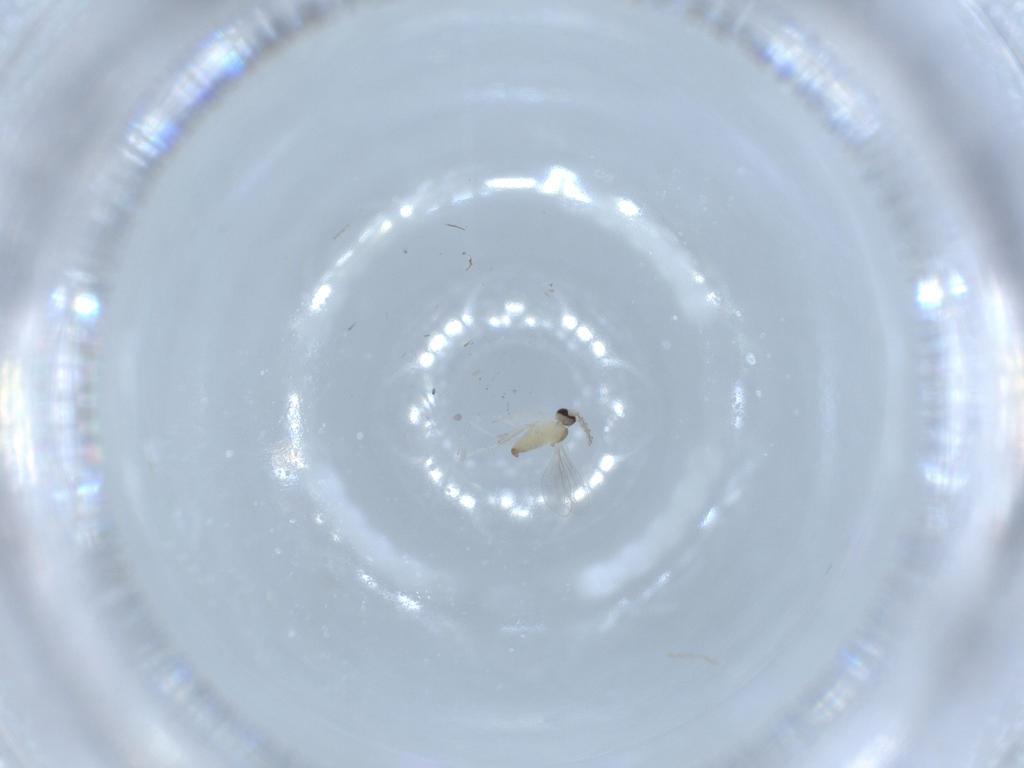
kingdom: Animalia
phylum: Arthropoda
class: Insecta
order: Diptera
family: Cecidomyiidae
